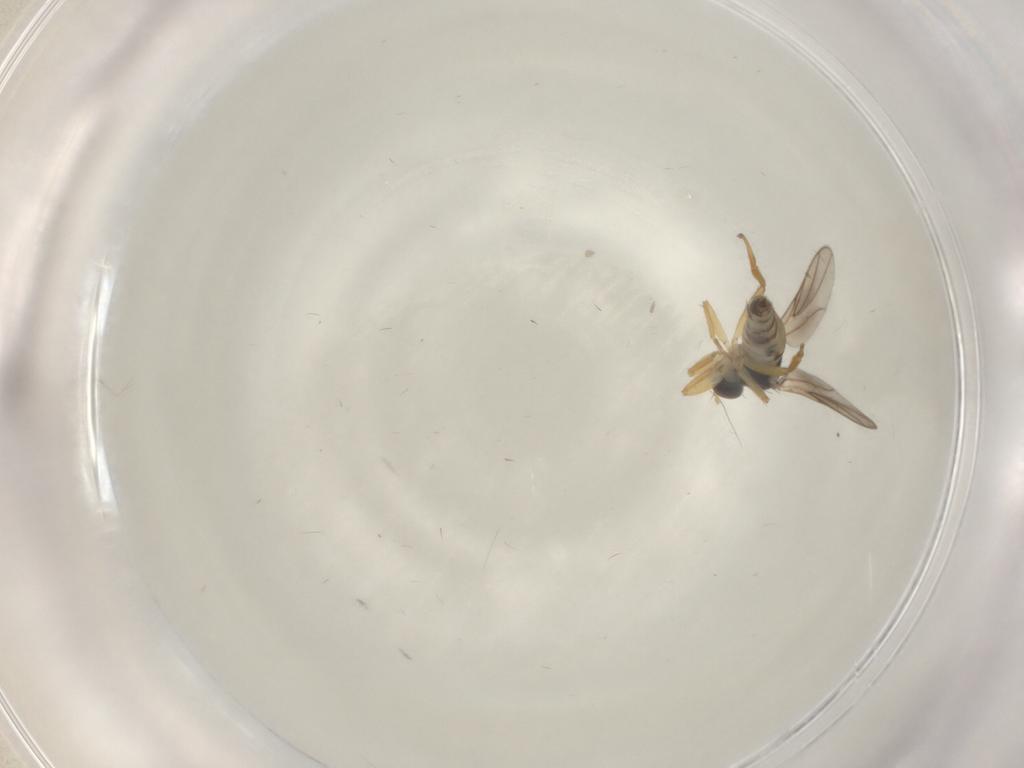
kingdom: Animalia
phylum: Arthropoda
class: Insecta
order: Diptera
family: Hybotidae
